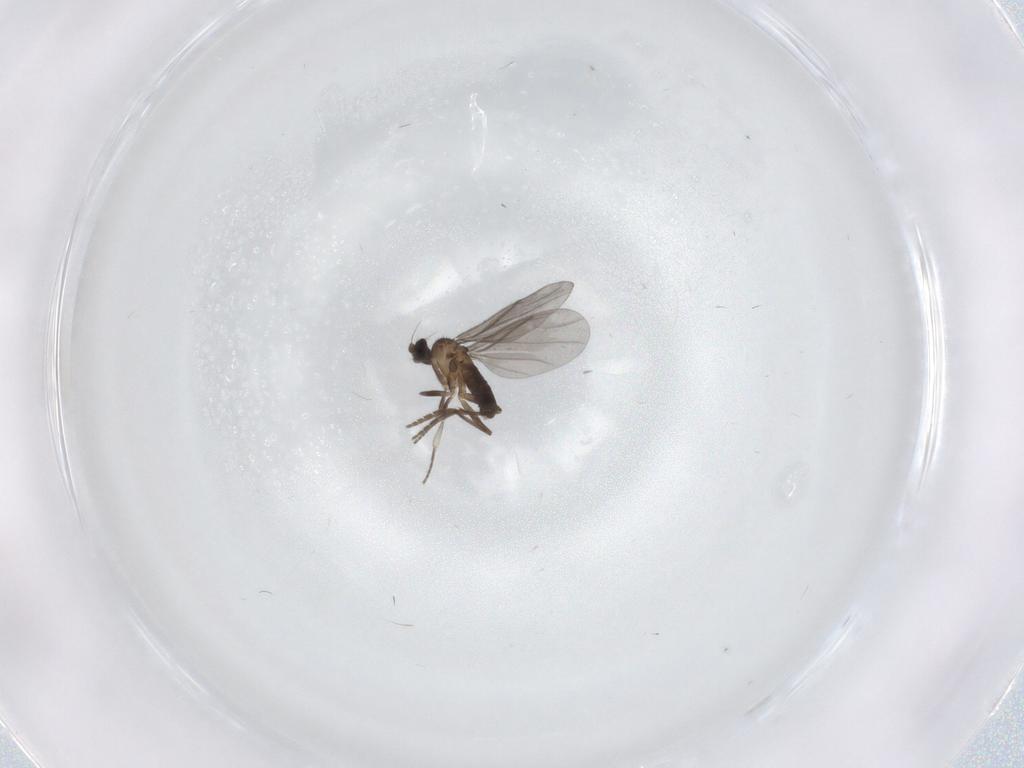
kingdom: Animalia
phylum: Arthropoda
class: Insecta
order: Diptera
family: Phoridae
